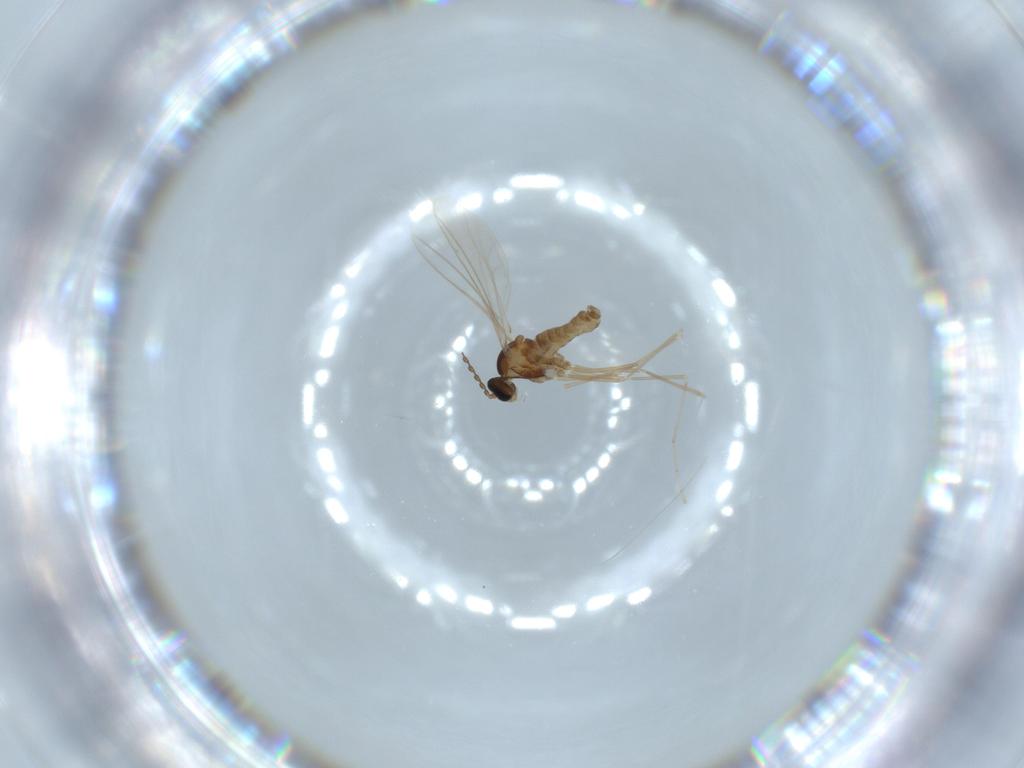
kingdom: Animalia
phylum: Arthropoda
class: Insecta
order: Diptera
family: Cecidomyiidae
